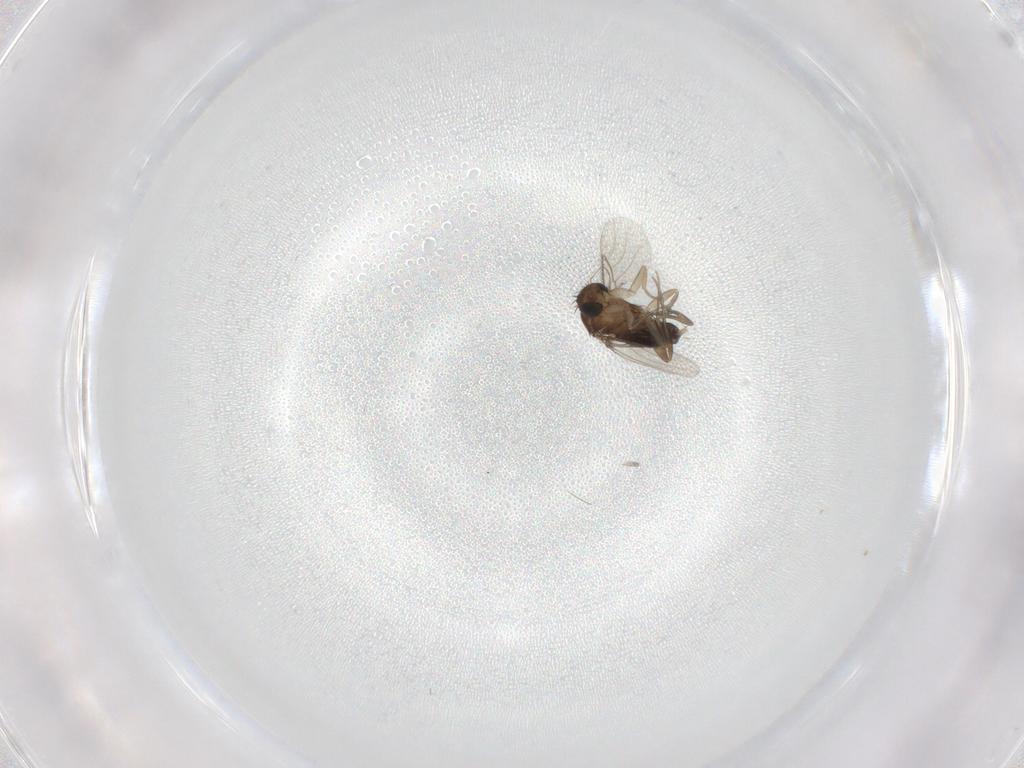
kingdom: Animalia
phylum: Arthropoda
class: Insecta
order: Diptera
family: Phoridae
